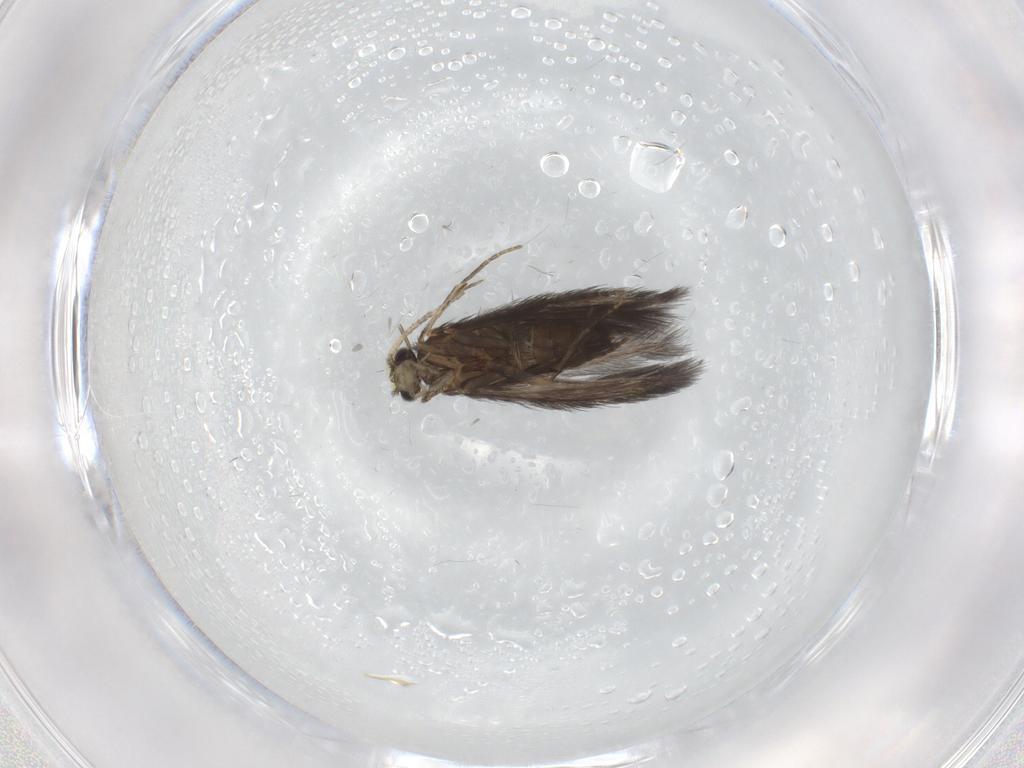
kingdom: Animalia
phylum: Arthropoda
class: Insecta
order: Trichoptera
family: Hydroptilidae
